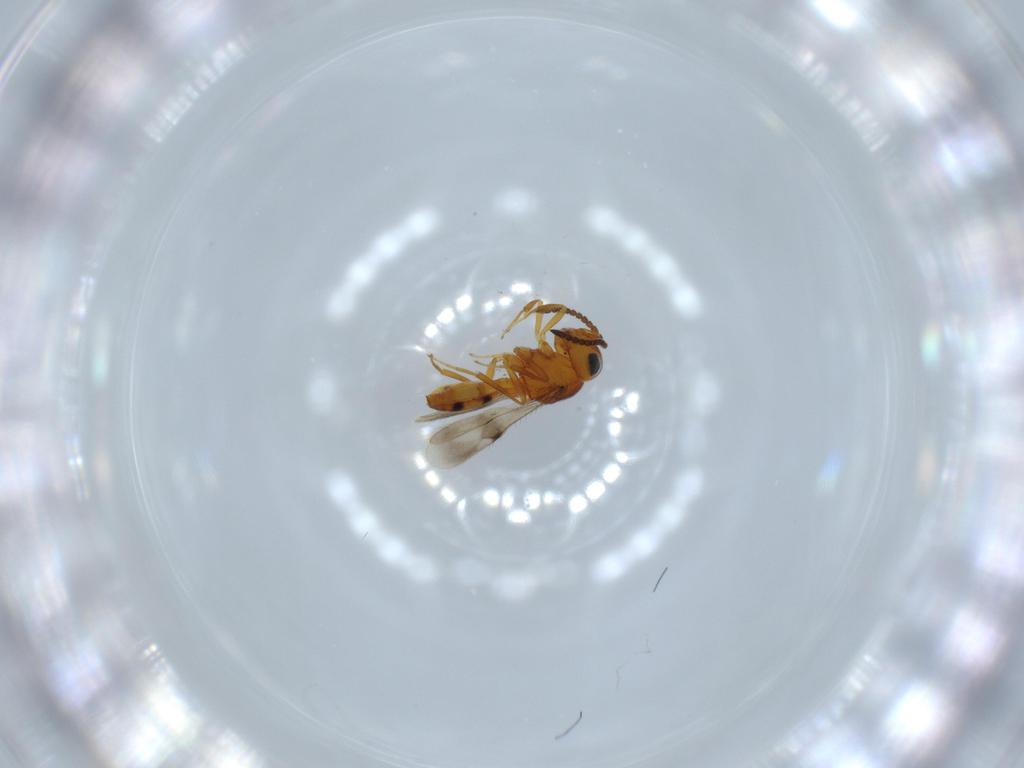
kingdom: Animalia
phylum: Arthropoda
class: Insecta
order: Hymenoptera
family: Scelionidae
